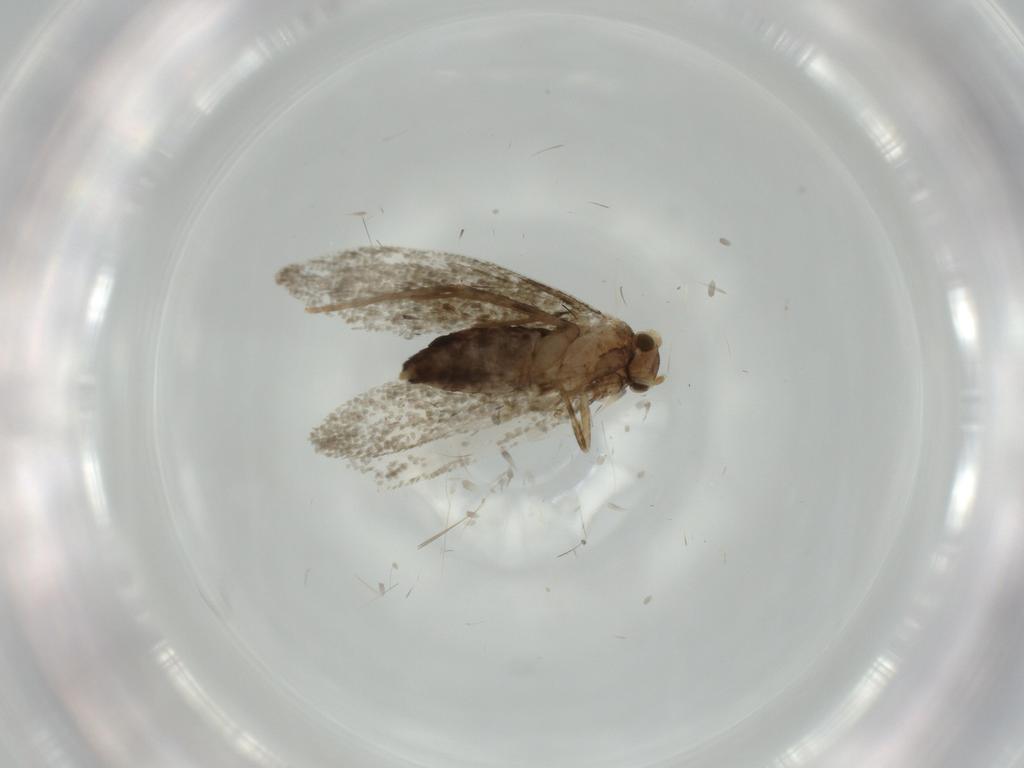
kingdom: Animalia
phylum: Arthropoda
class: Insecta
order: Lepidoptera
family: Tineidae
